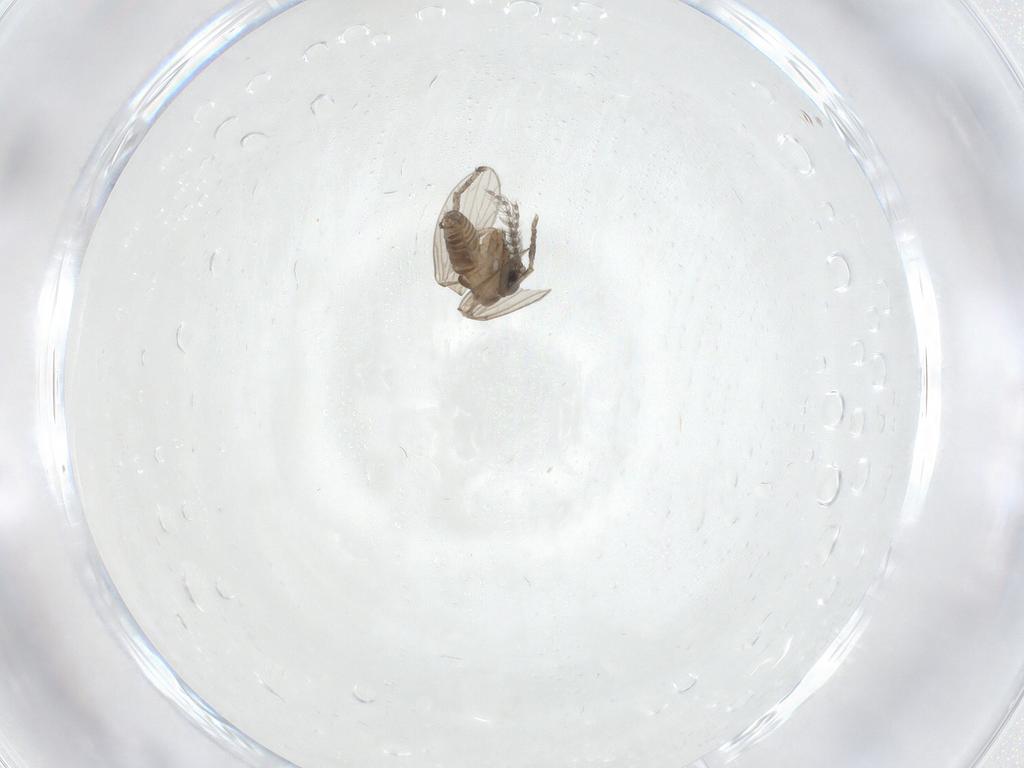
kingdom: Animalia
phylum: Arthropoda
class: Insecta
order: Diptera
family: Psychodidae
